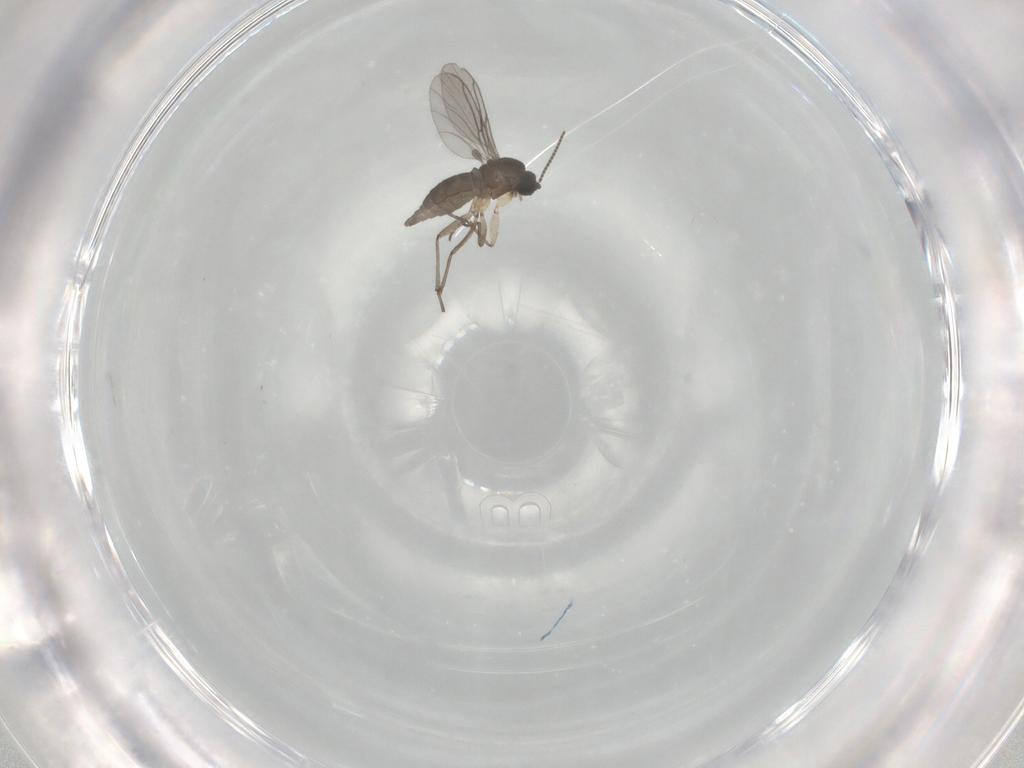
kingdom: Animalia
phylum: Arthropoda
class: Insecta
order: Diptera
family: Sciaridae
